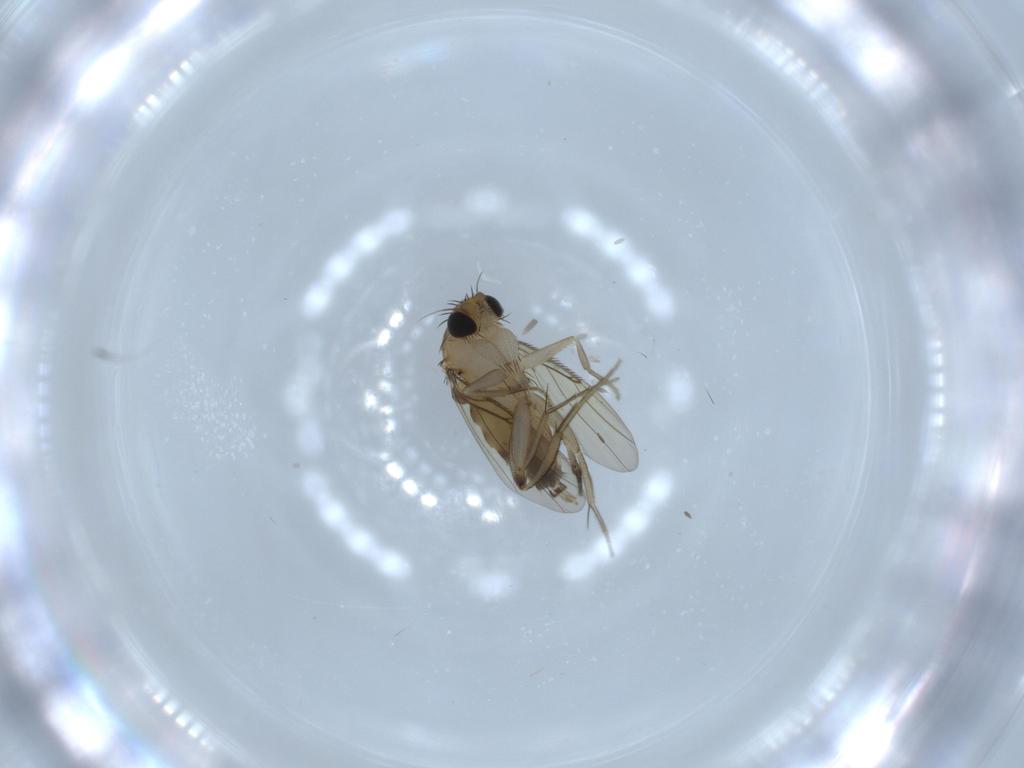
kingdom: Animalia
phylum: Arthropoda
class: Insecta
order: Diptera
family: Phoridae
